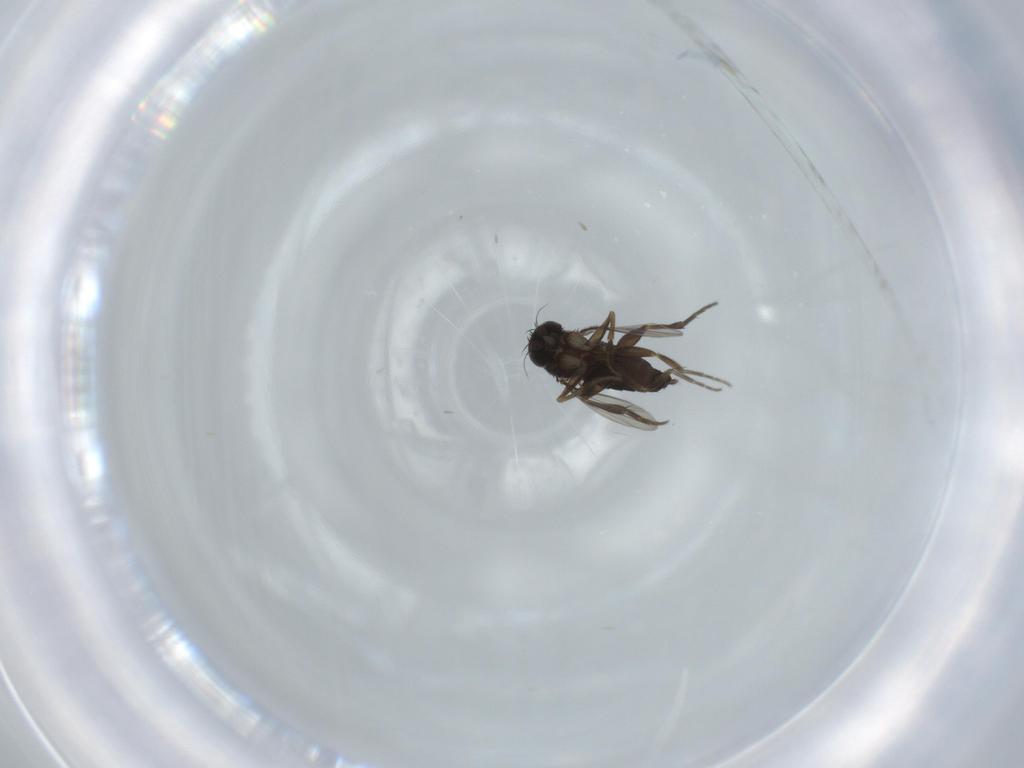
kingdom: Animalia
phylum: Arthropoda
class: Insecta
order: Diptera
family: Phoridae
